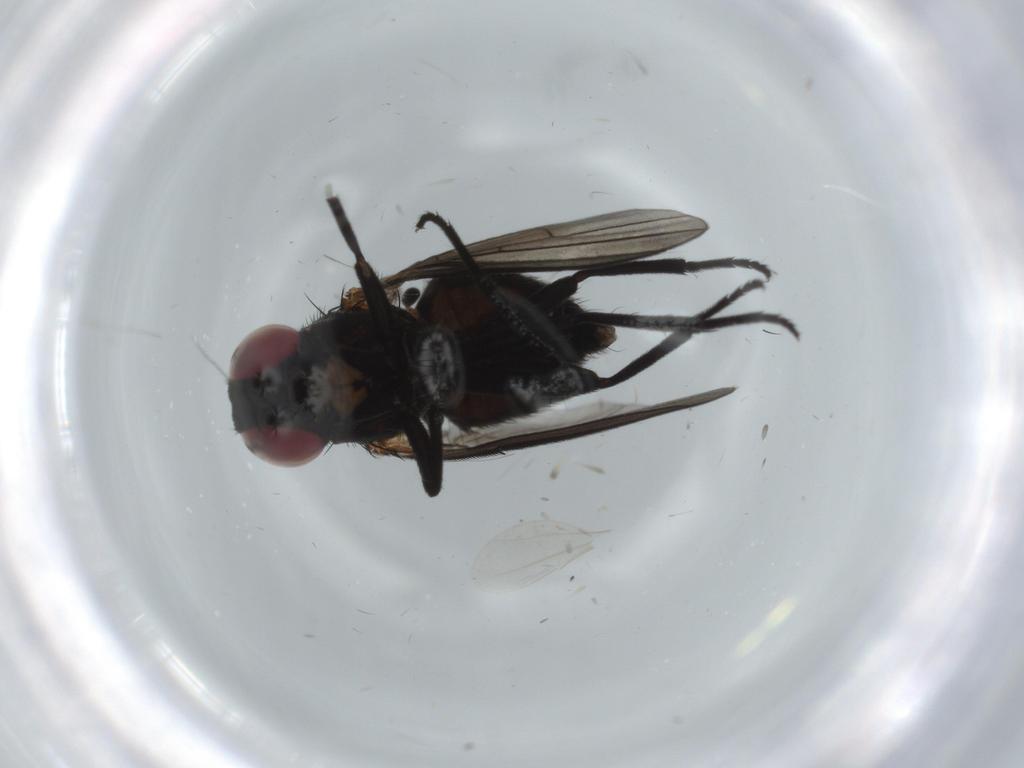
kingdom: Animalia
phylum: Arthropoda
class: Insecta
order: Diptera
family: Cecidomyiidae
